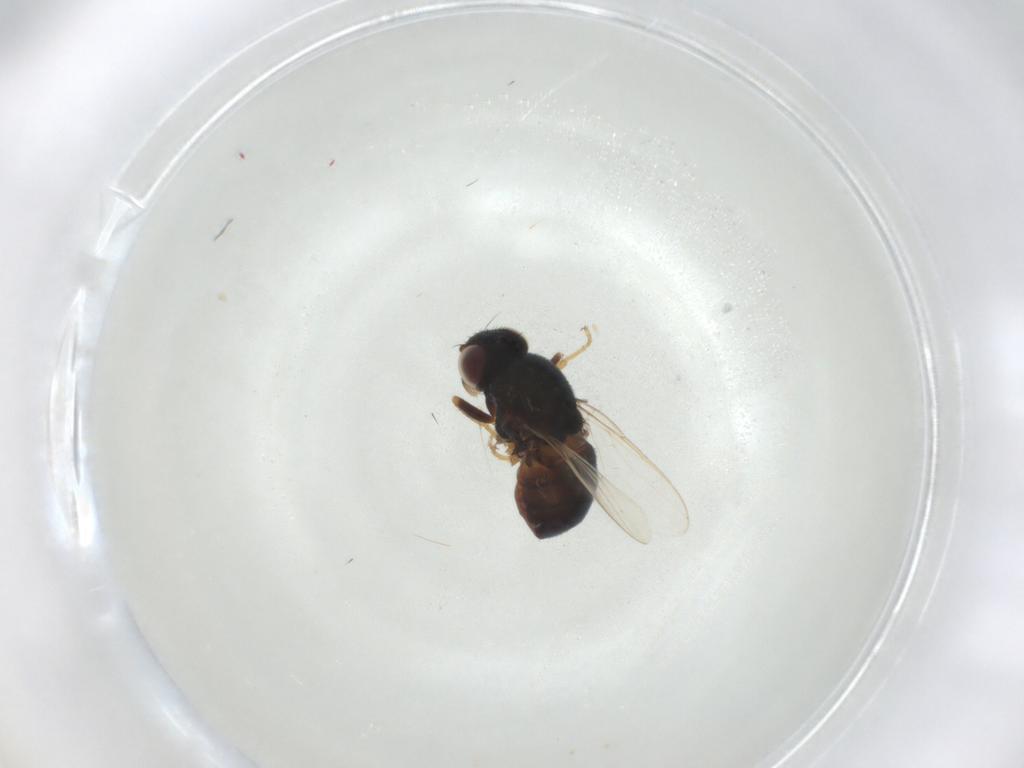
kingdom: Animalia
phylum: Arthropoda
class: Insecta
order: Diptera
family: Chloropidae
